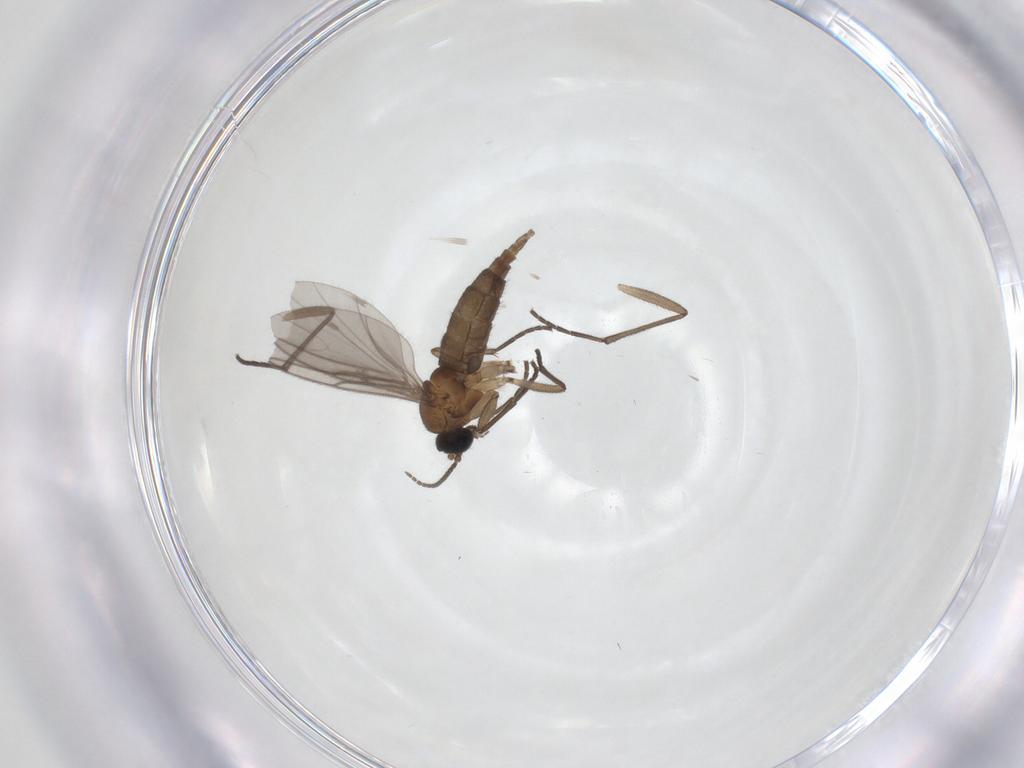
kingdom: Animalia
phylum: Arthropoda
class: Insecta
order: Diptera
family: Sciaridae
